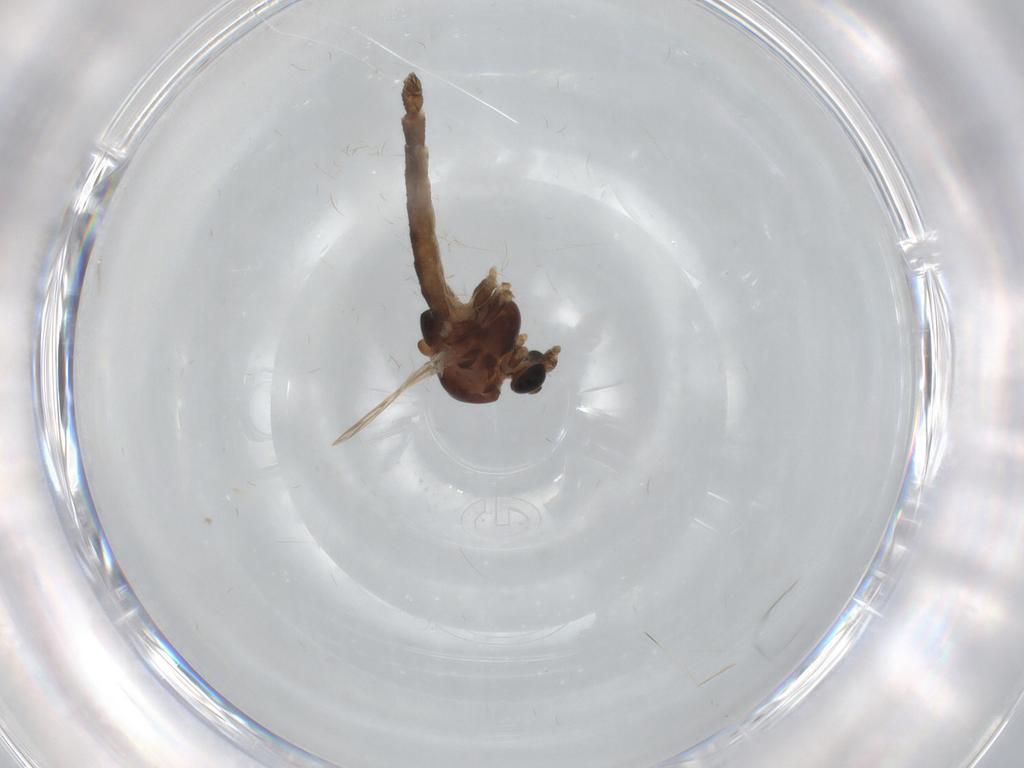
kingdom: Animalia
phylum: Arthropoda
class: Insecta
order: Diptera
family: Chironomidae
